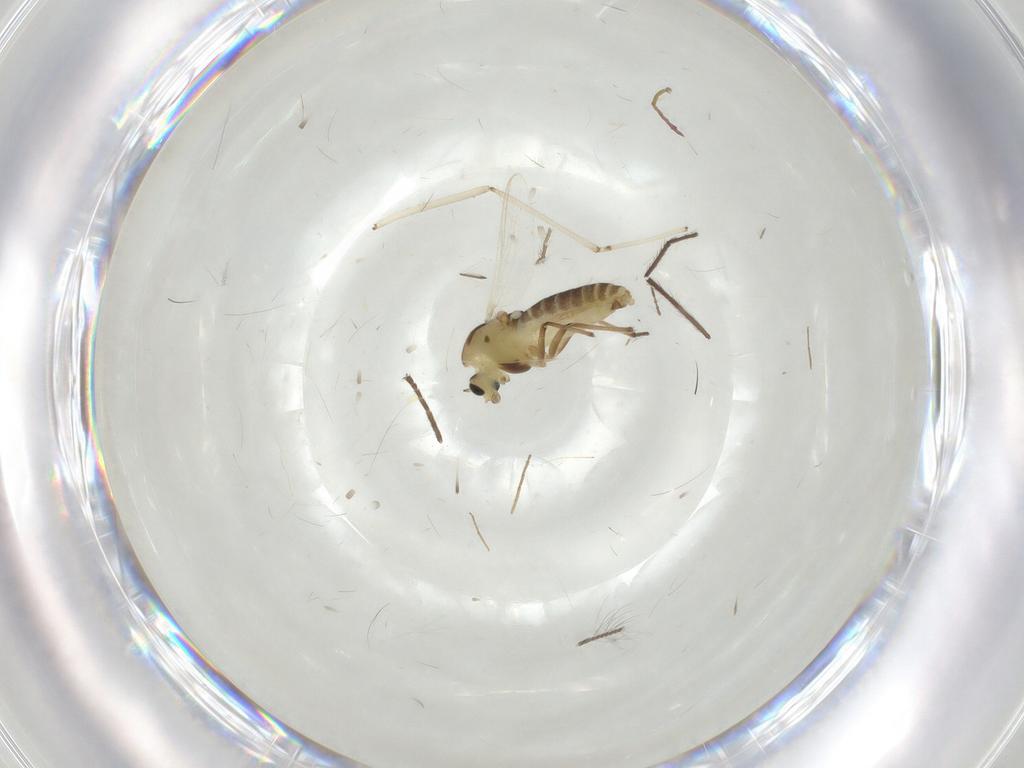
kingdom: Animalia
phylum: Arthropoda
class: Insecta
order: Diptera
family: Chironomidae
